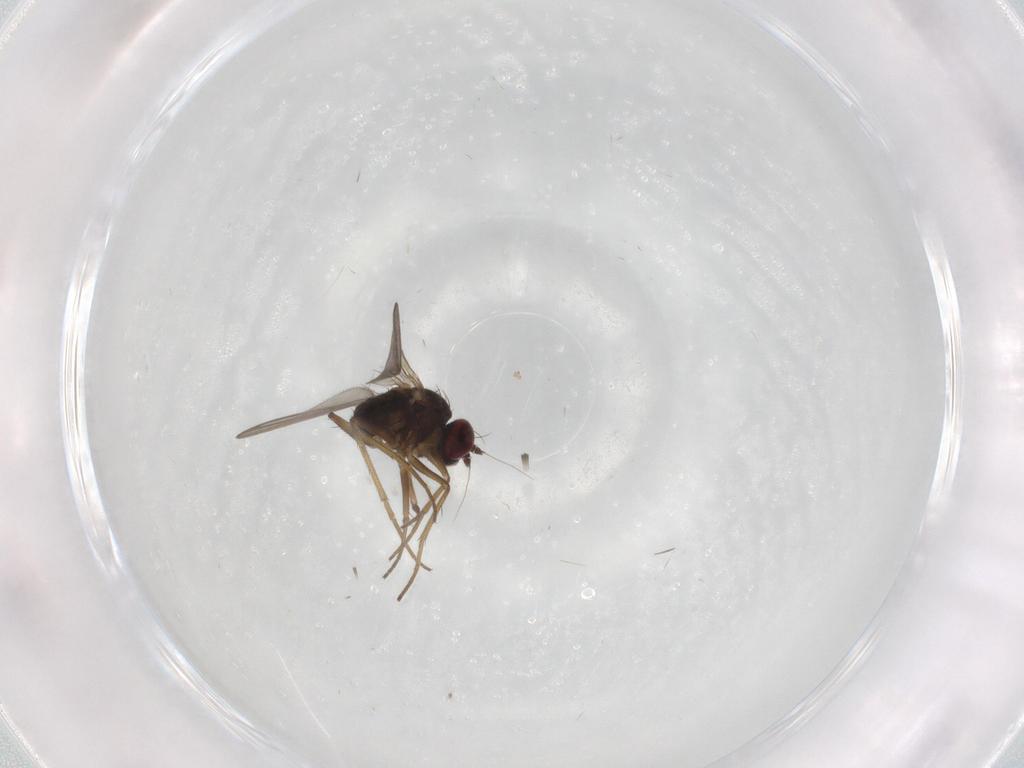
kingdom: Animalia
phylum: Arthropoda
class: Insecta
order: Diptera
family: Dolichopodidae
